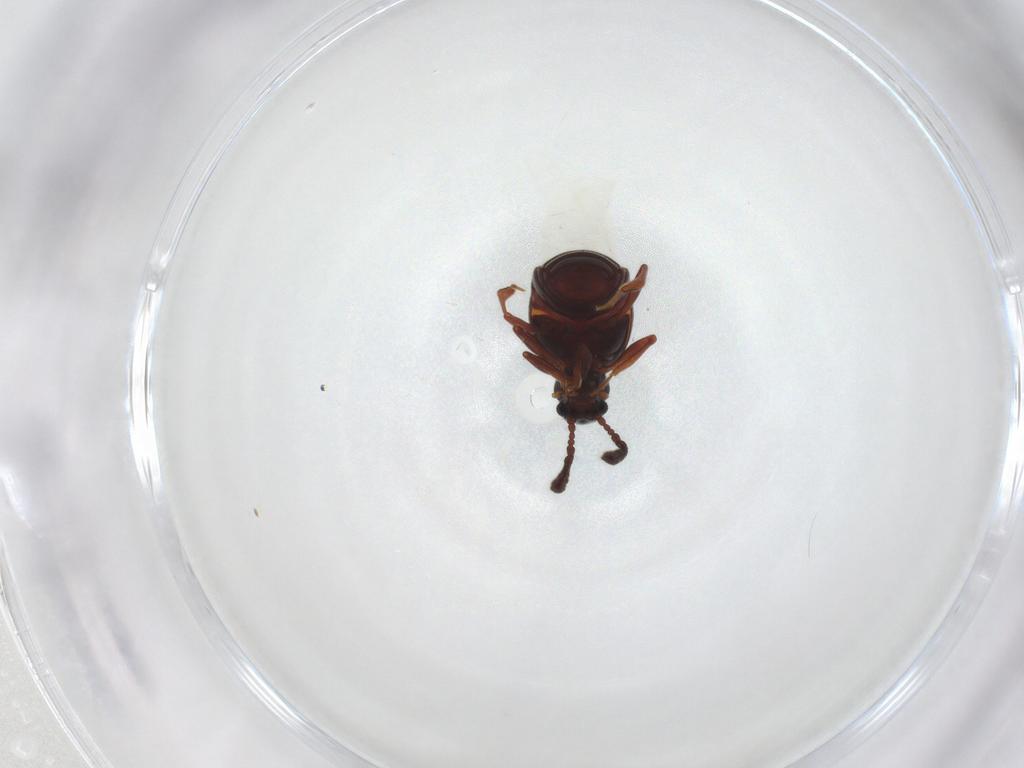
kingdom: Animalia
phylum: Arthropoda
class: Insecta
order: Coleoptera
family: Staphylinidae
